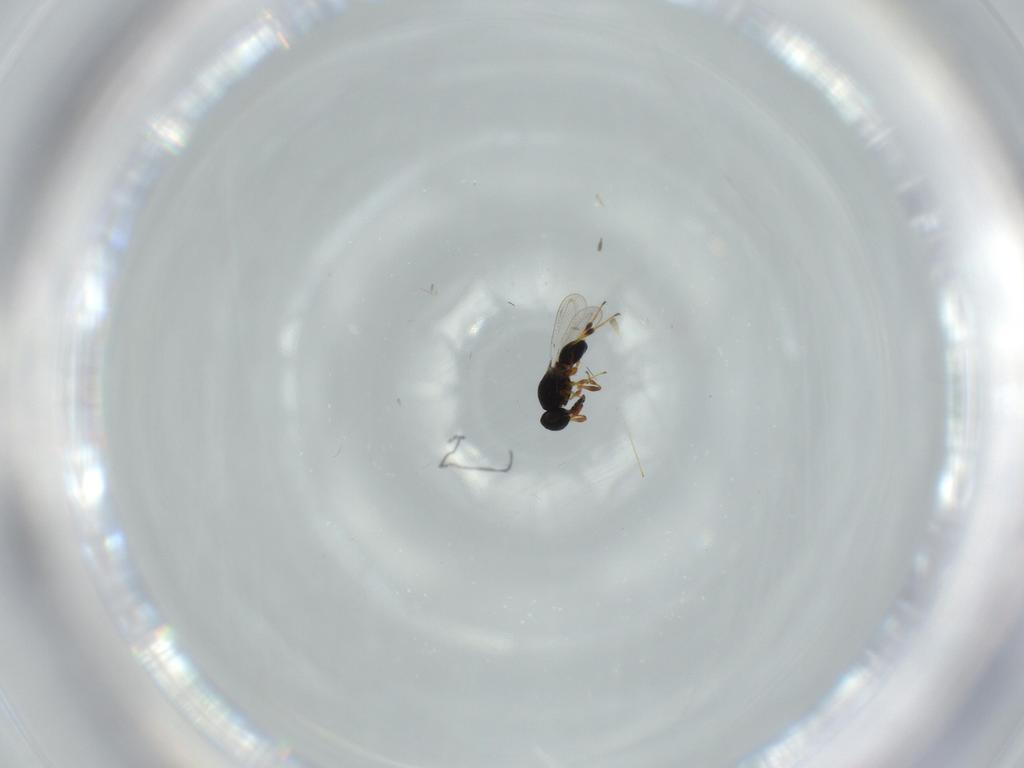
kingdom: Animalia
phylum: Arthropoda
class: Insecta
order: Hymenoptera
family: Platygastridae
